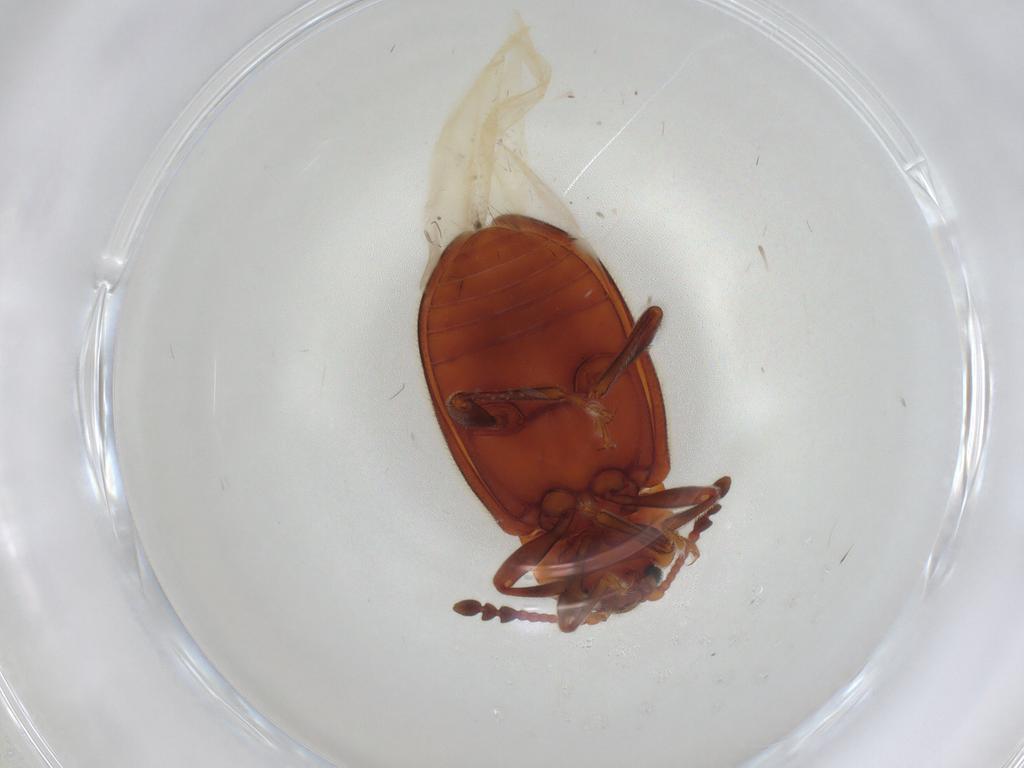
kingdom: Animalia
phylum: Arthropoda
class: Insecta
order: Coleoptera
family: Endomychidae
